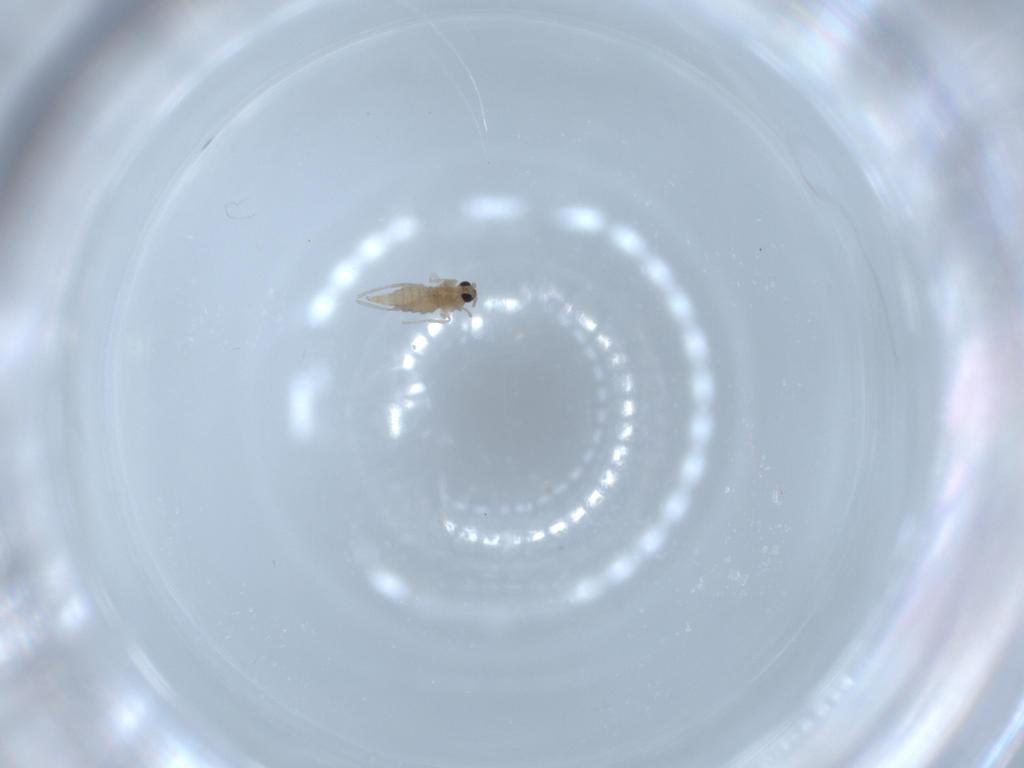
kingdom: Animalia
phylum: Arthropoda
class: Insecta
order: Diptera
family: Cecidomyiidae
